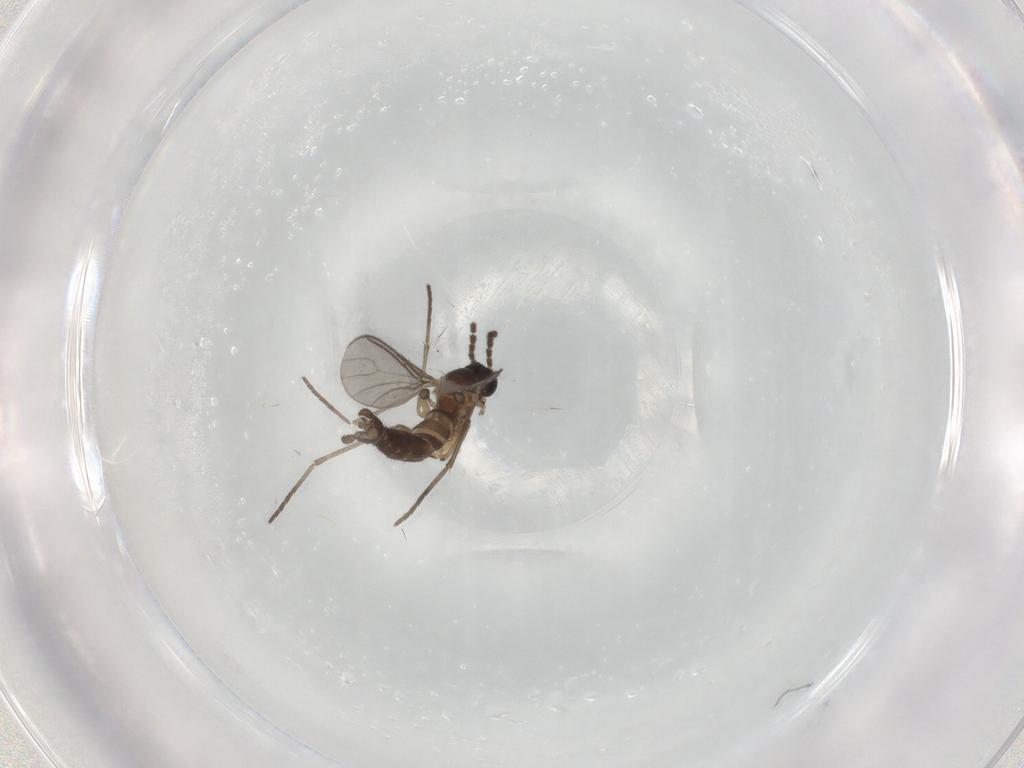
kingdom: Animalia
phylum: Arthropoda
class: Insecta
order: Diptera
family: Sciaridae
